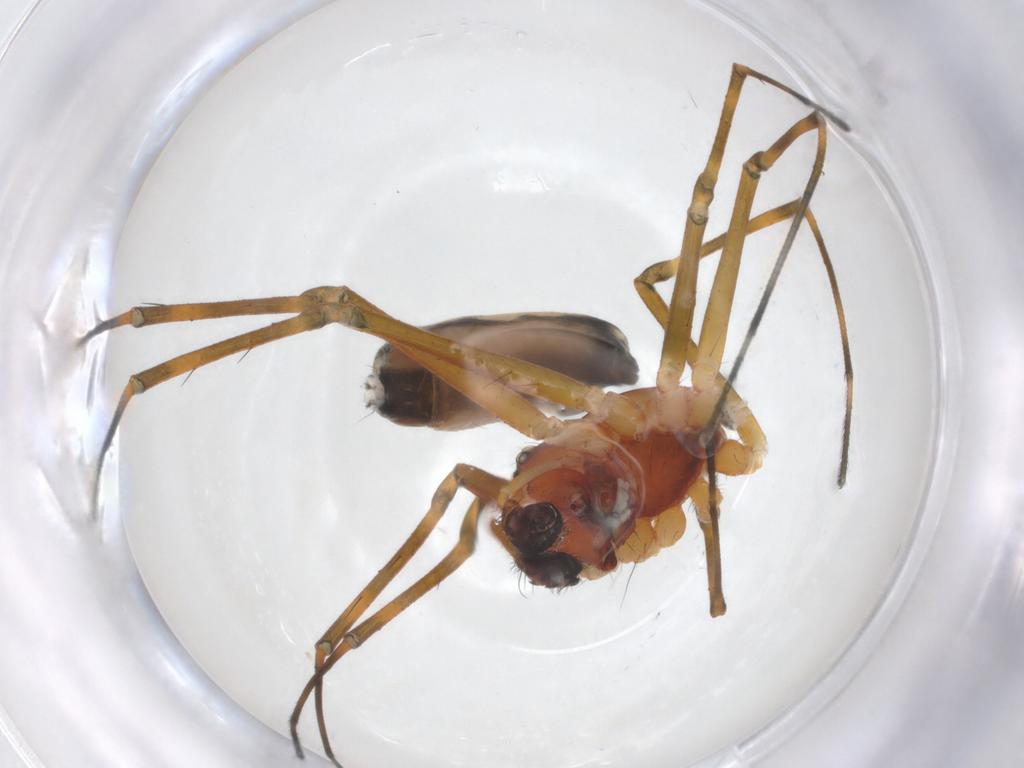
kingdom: Animalia
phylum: Arthropoda
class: Arachnida
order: Araneae
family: Linyphiidae
